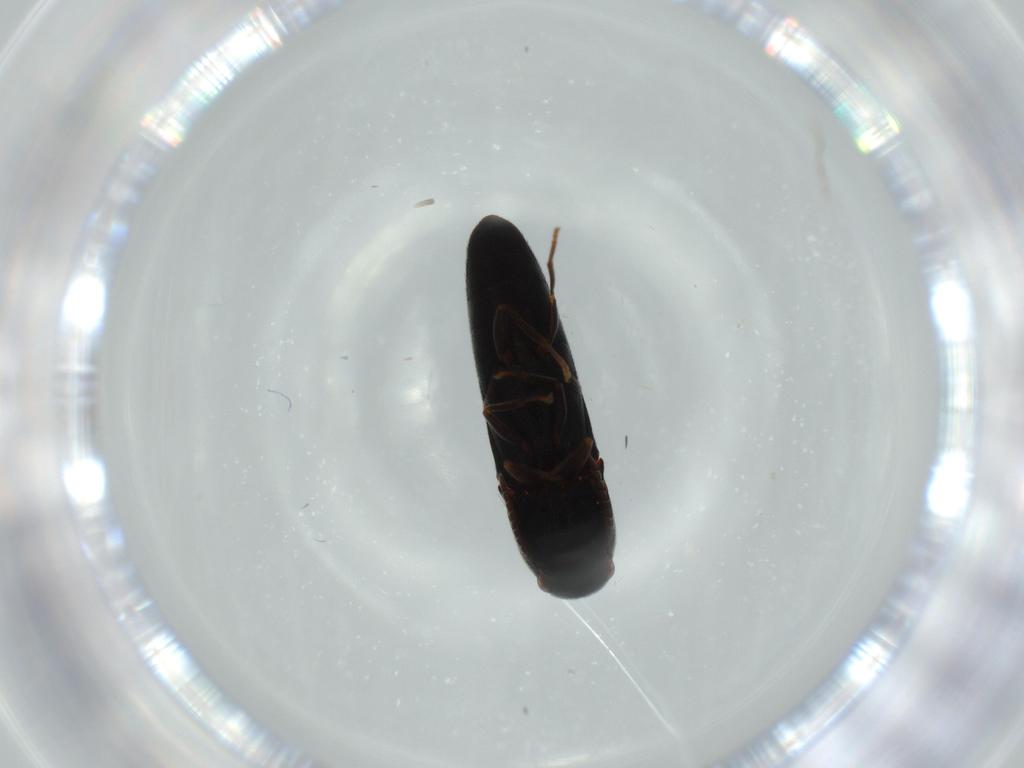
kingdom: Animalia
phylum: Arthropoda
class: Insecta
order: Coleoptera
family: Eucnemidae
